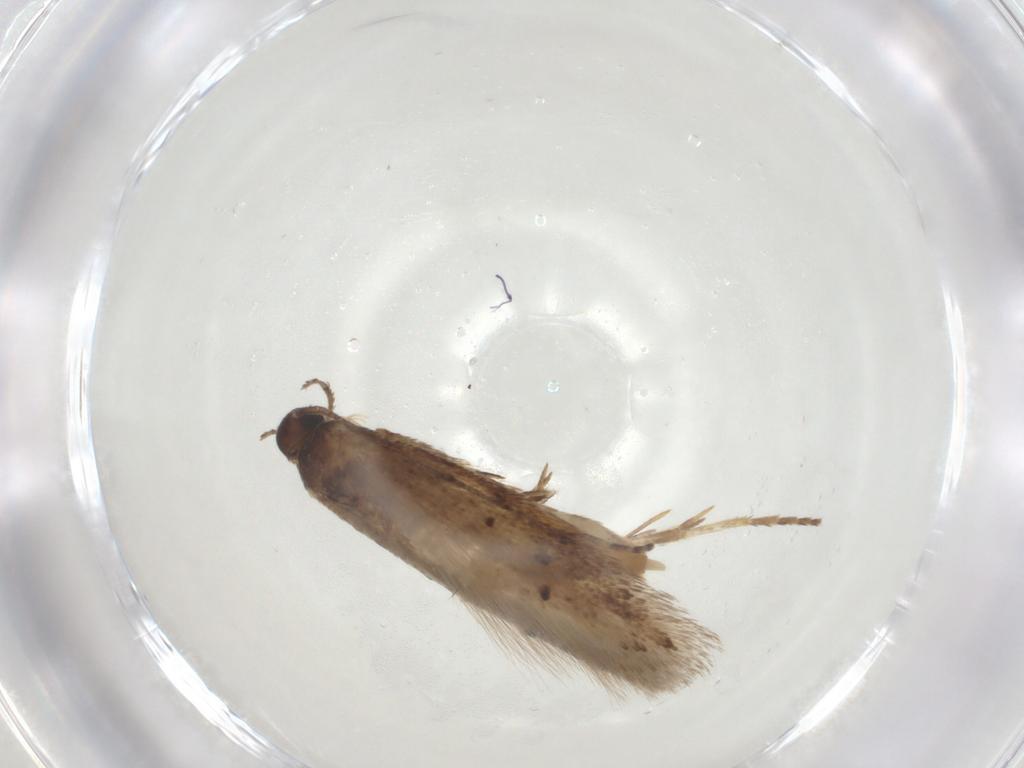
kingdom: Animalia
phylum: Arthropoda
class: Insecta
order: Lepidoptera
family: Gelechiidae
